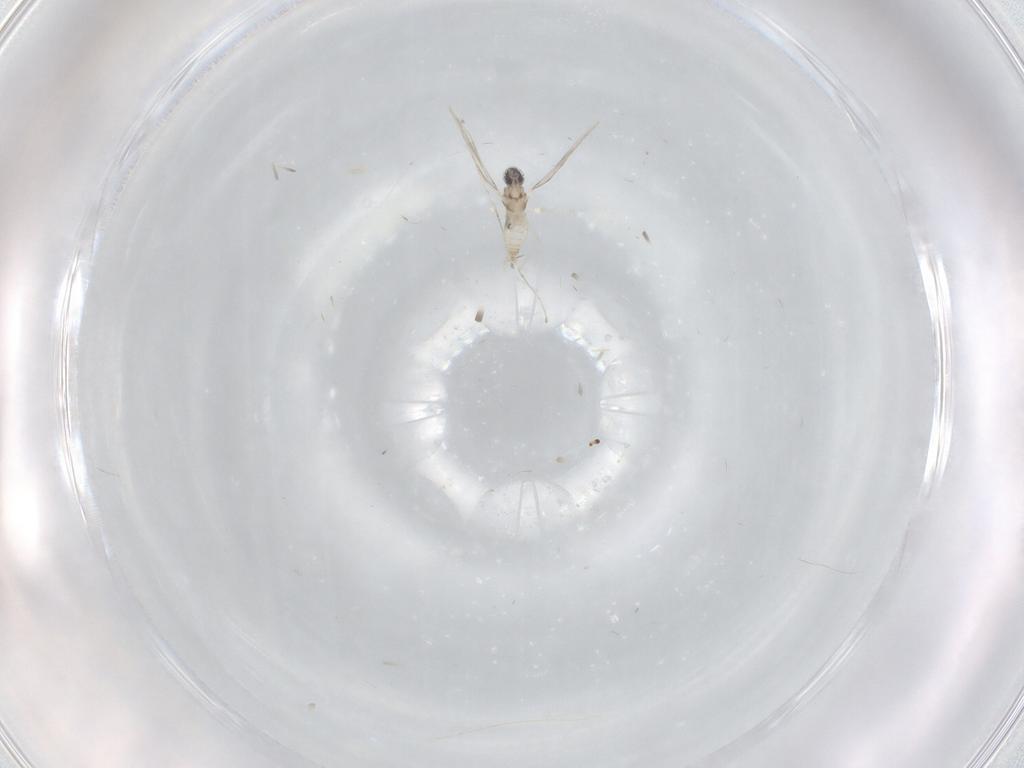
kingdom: Animalia
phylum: Arthropoda
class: Insecta
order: Diptera
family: Cecidomyiidae
